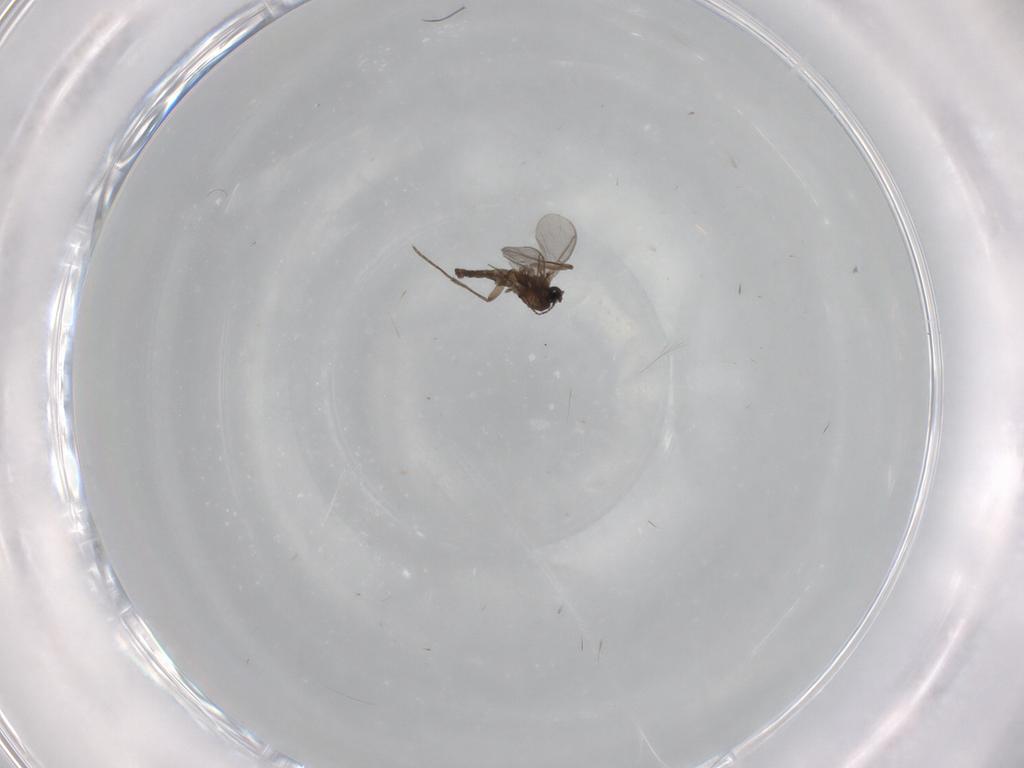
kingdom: Animalia
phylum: Arthropoda
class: Insecta
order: Diptera
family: Sciaridae
